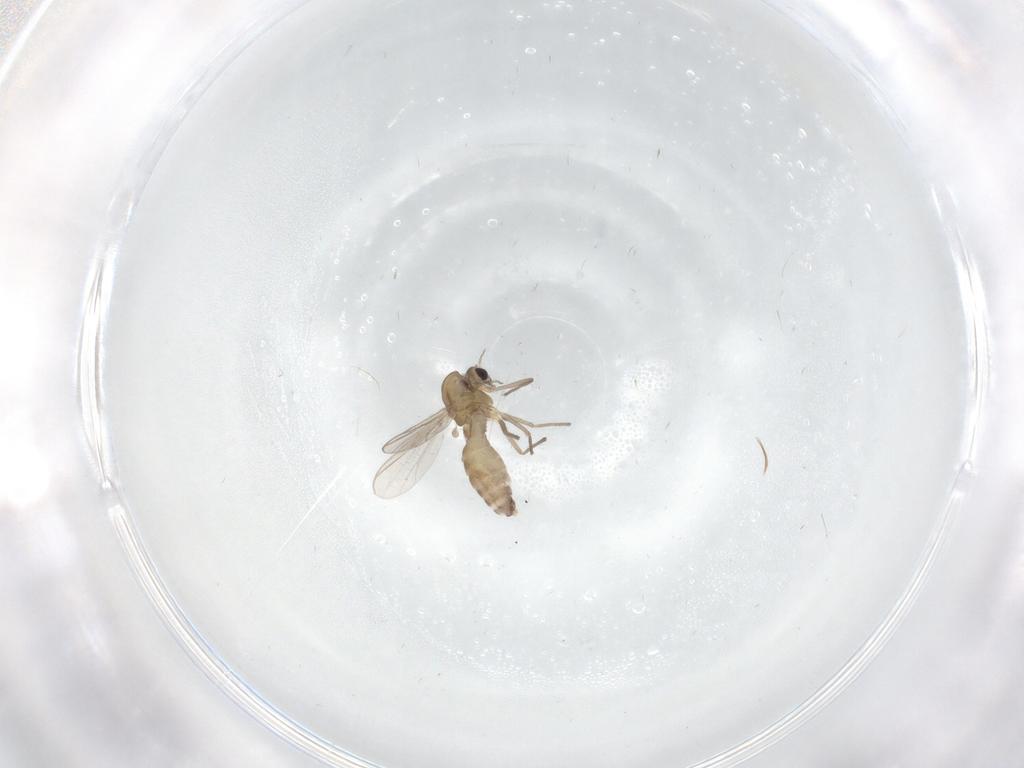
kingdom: Animalia
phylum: Arthropoda
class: Insecta
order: Diptera
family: Chironomidae
